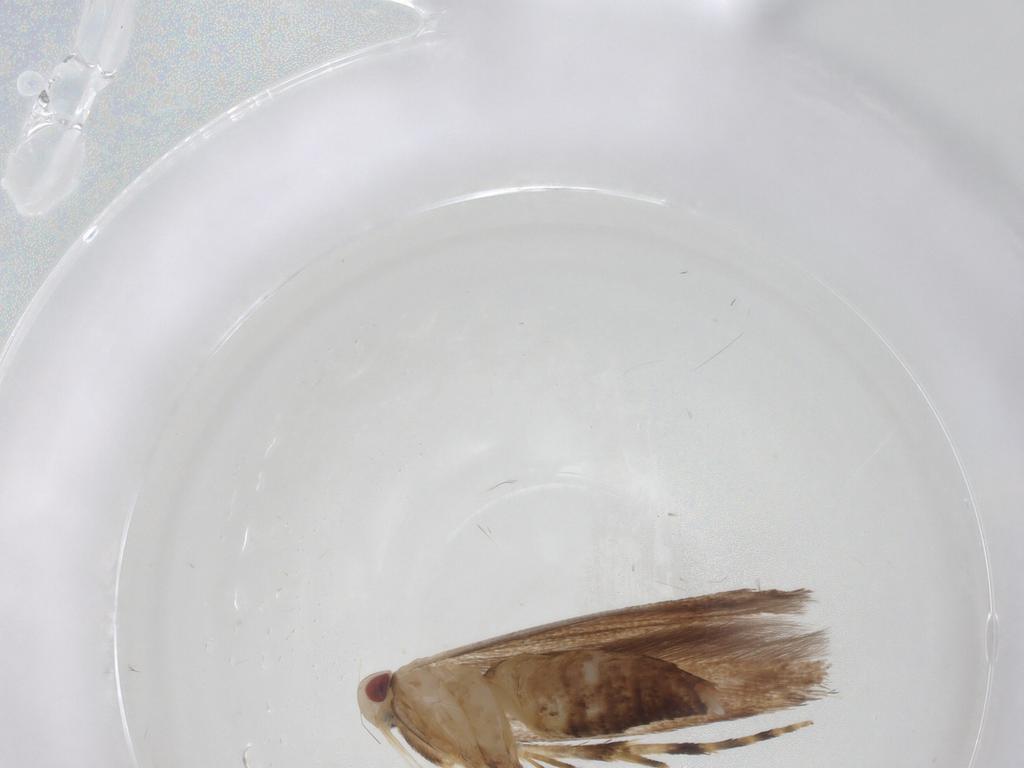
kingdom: Animalia
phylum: Arthropoda
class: Insecta
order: Lepidoptera
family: Cosmopterigidae
